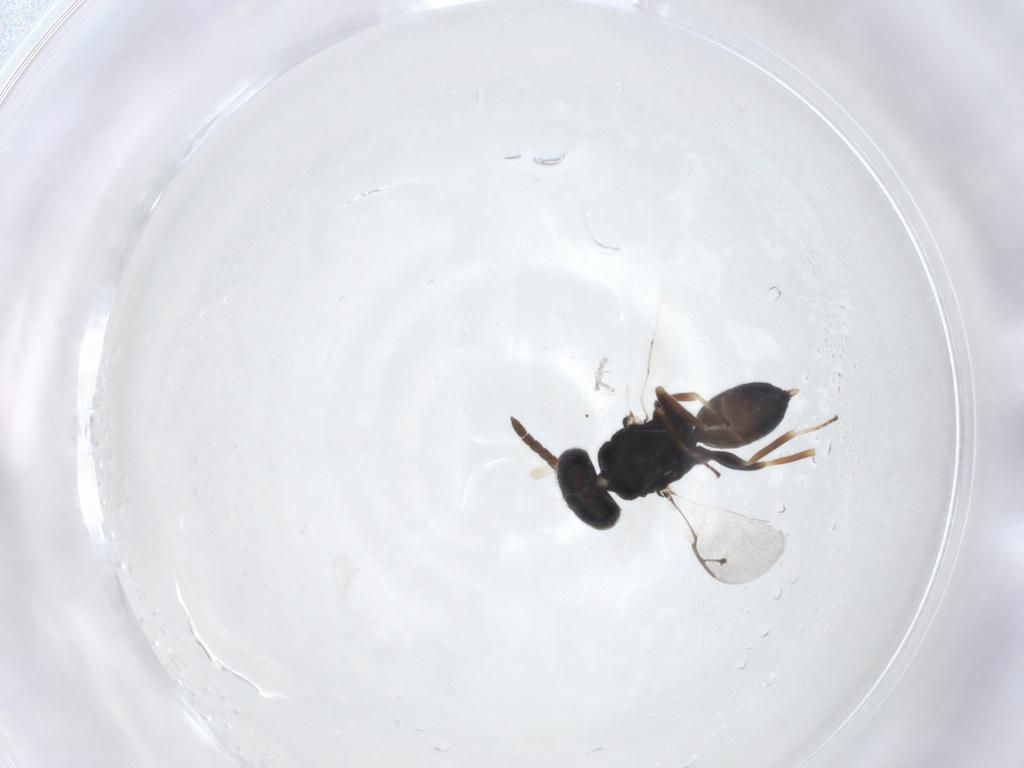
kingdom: Animalia
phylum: Arthropoda
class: Insecta
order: Hymenoptera
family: Pteromalidae
